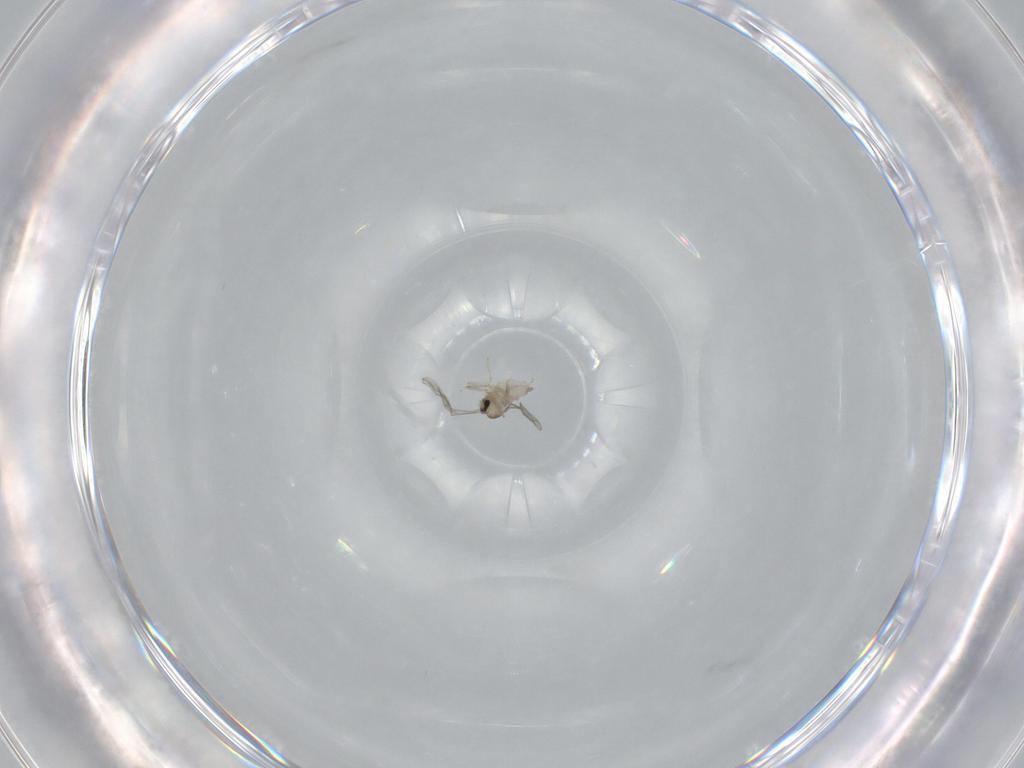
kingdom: Animalia
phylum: Arthropoda
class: Insecta
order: Diptera
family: Cecidomyiidae
